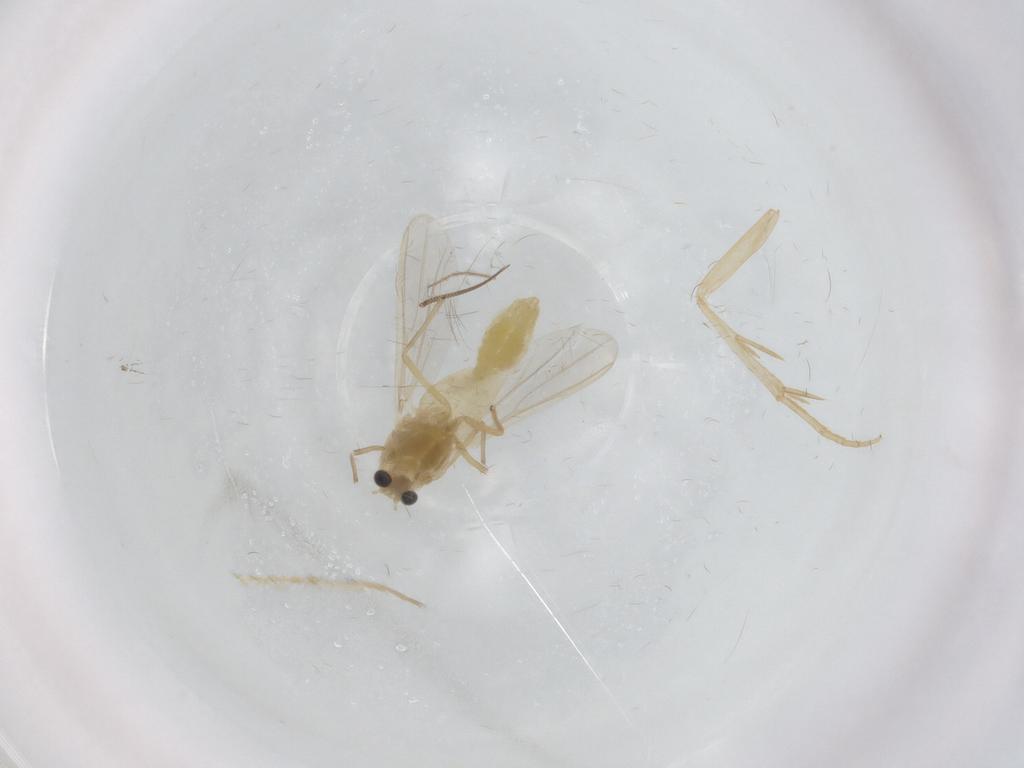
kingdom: Animalia
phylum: Arthropoda
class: Insecta
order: Diptera
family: Chironomidae
